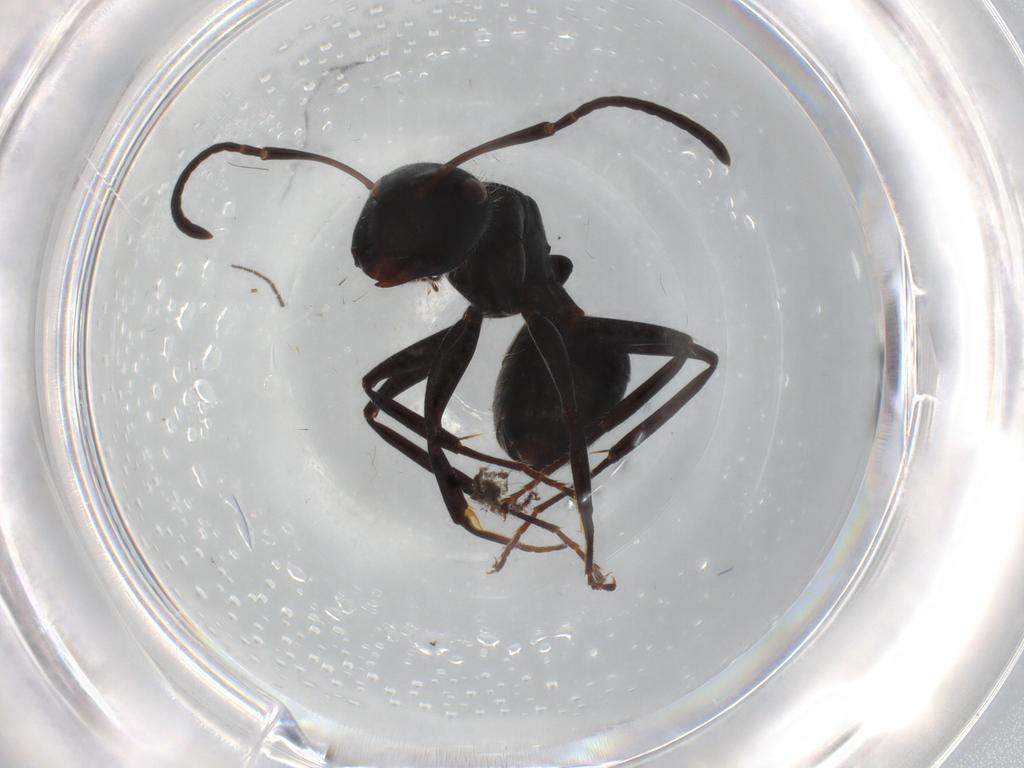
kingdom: Animalia
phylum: Arthropoda
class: Insecta
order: Hymenoptera
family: Formicidae
